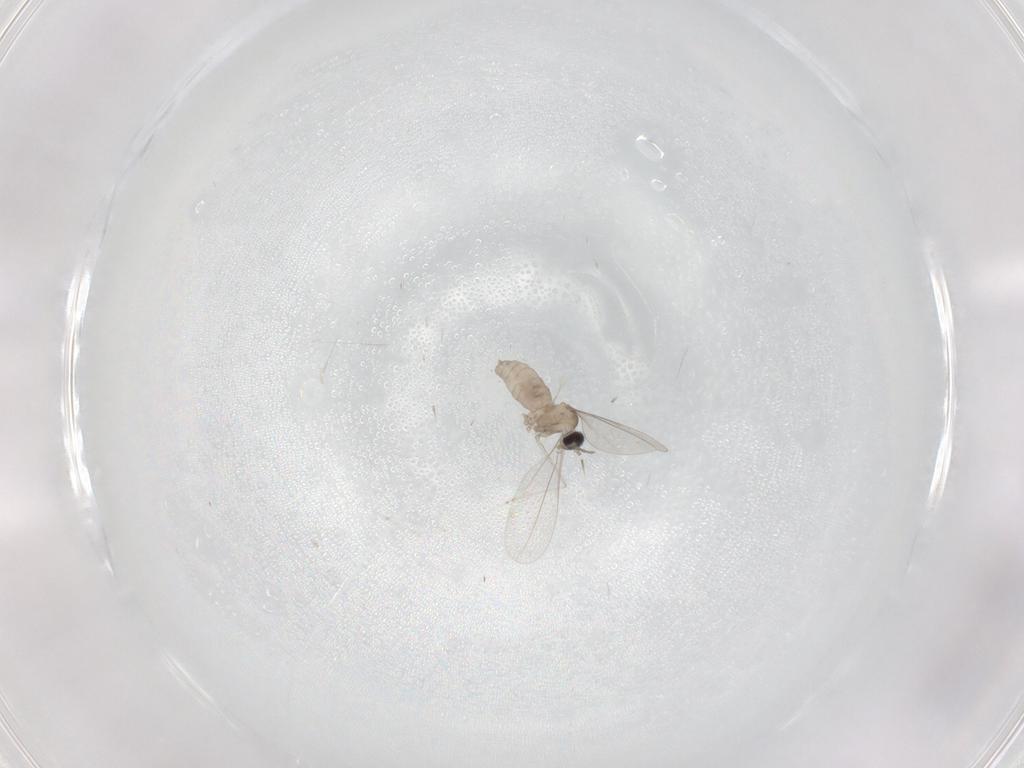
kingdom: Animalia
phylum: Arthropoda
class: Insecta
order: Diptera
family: Cecidomyiidae
